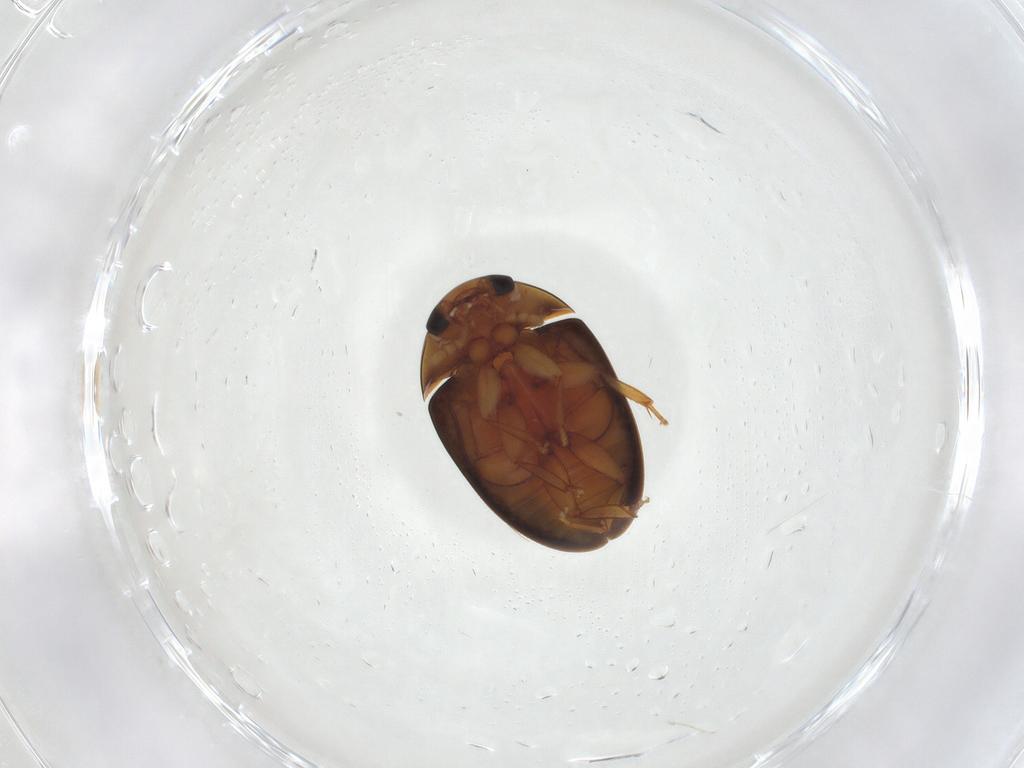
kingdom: Animalia
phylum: Arthropoda
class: Insecta
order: Coleoptera
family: Phalacridae
